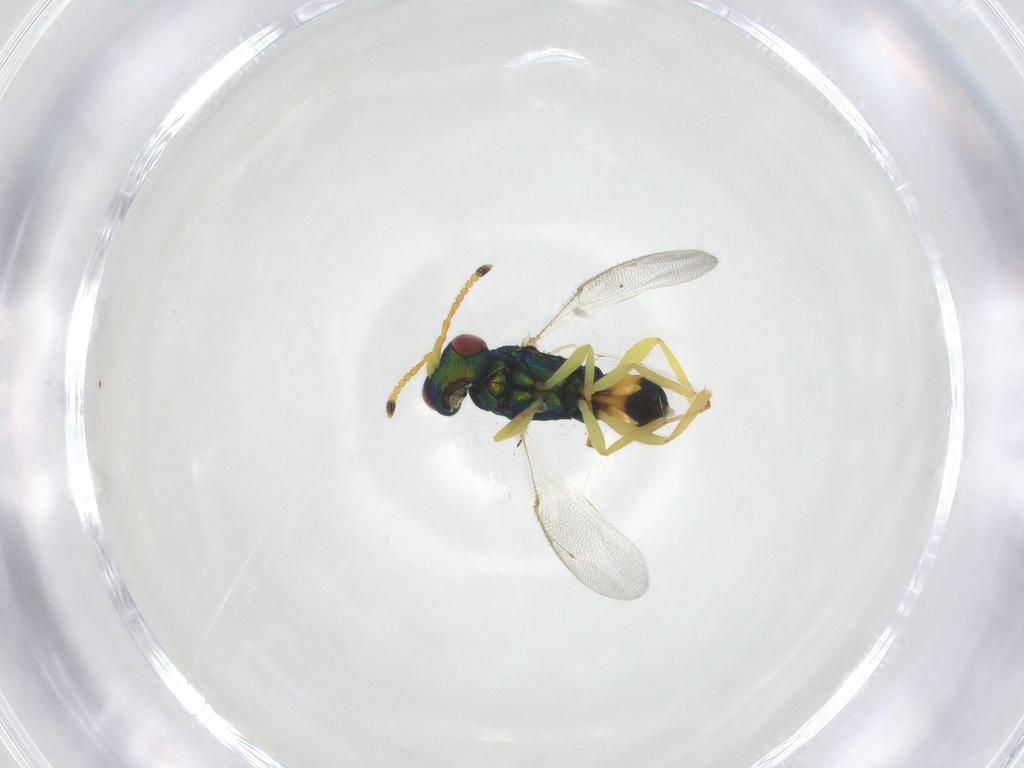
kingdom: Animalia
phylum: Arthropoda
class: Insecta
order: Hymenoptera
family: Pteromalidae
